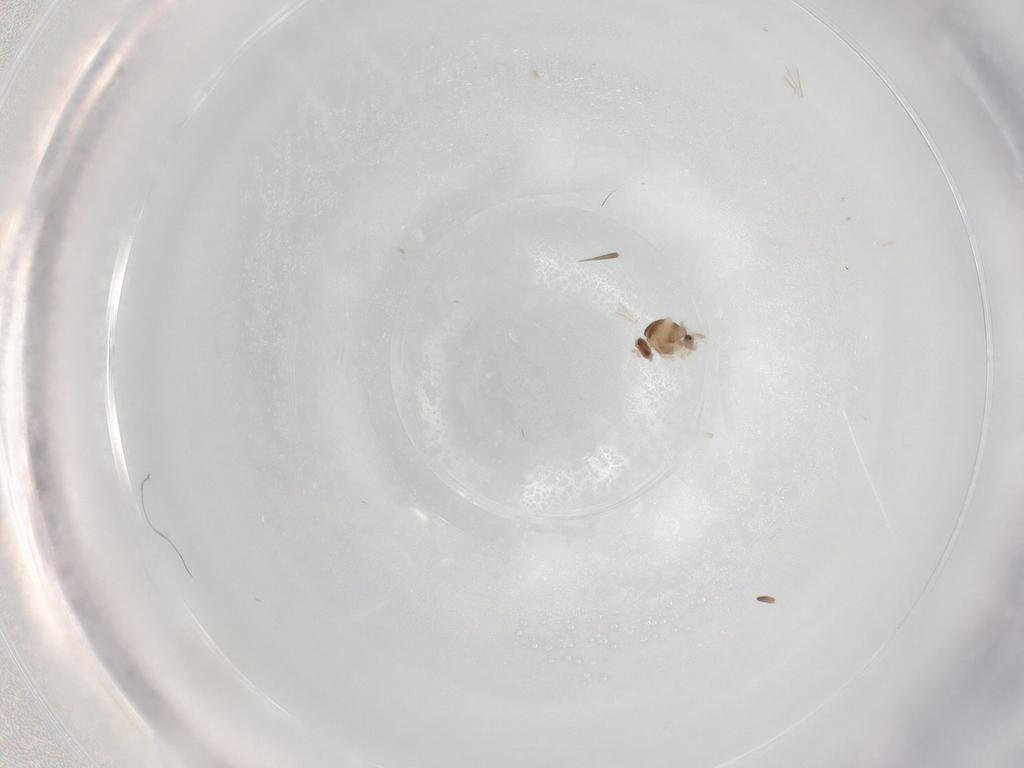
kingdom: Animalia
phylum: Arthropoda
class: Insecta
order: Diptera
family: Cecidomyiidae
